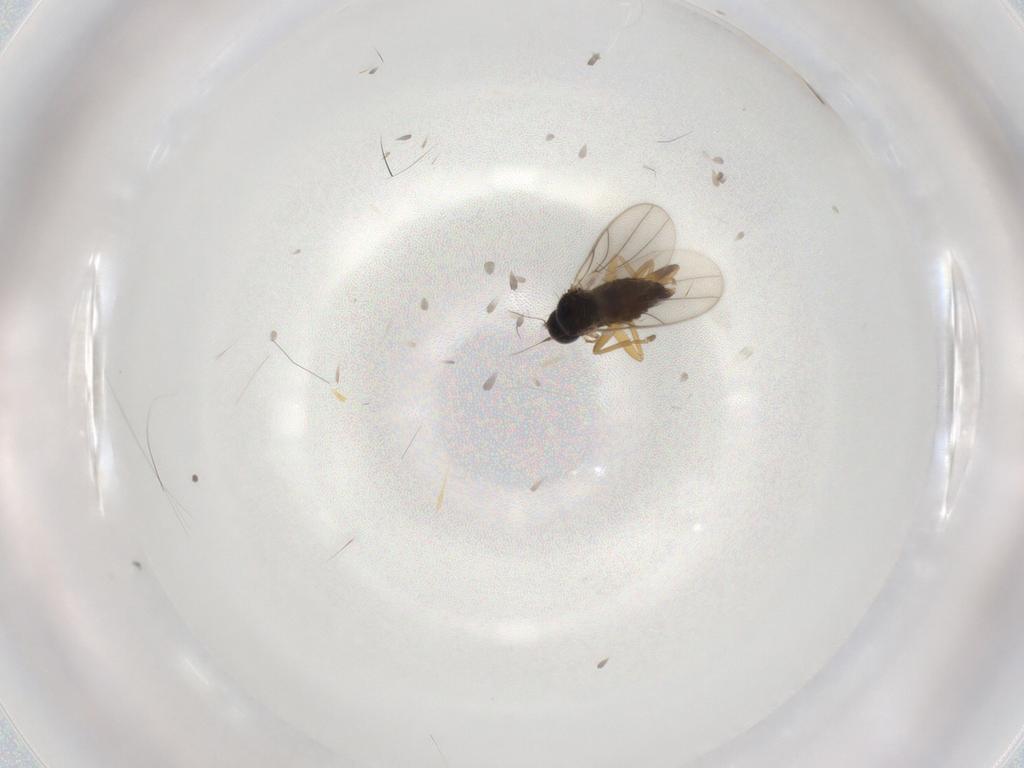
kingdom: Animalia
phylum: Arthropoda
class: Insecta
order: Diptera
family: Hybotidae
